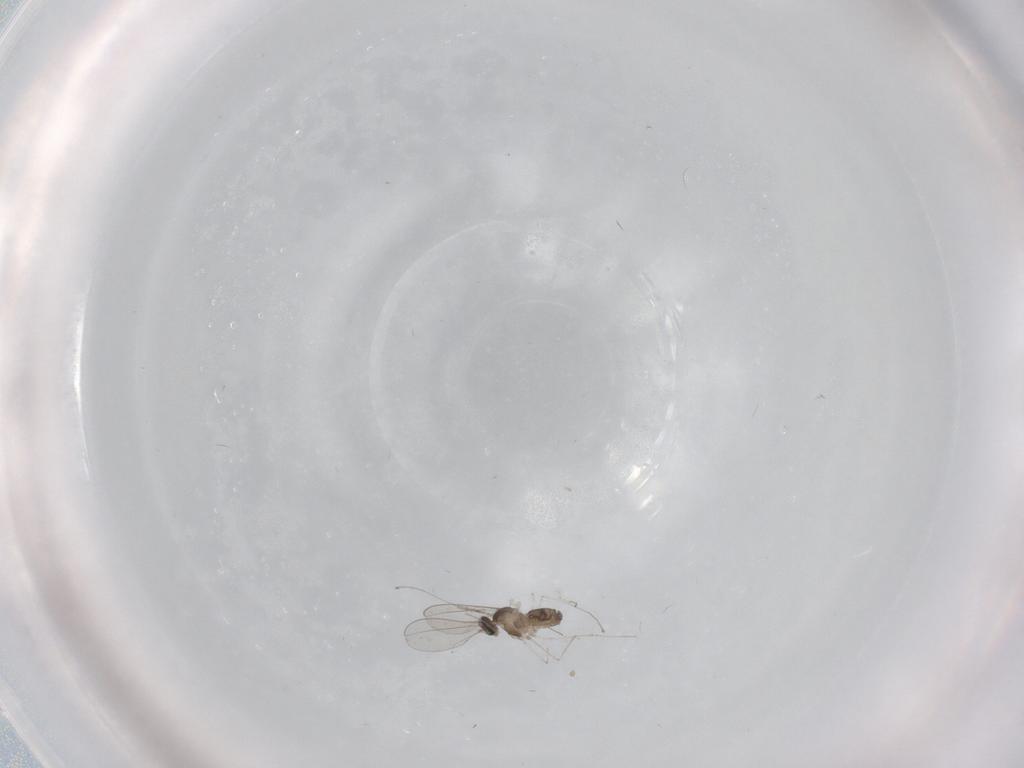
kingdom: Animalia
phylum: Arthropoda
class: Insecta
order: Diptera
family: Cecidomyiidae
